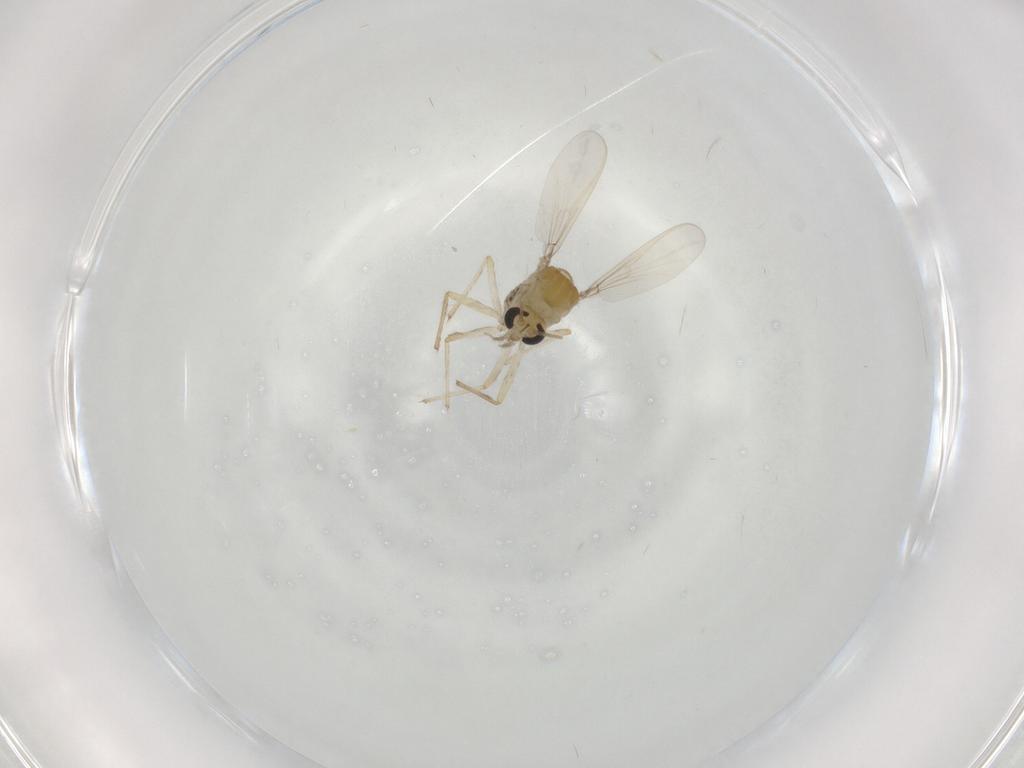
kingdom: Animalia
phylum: Arthropoda
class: Insecta
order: Diptera
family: Chironomidae
